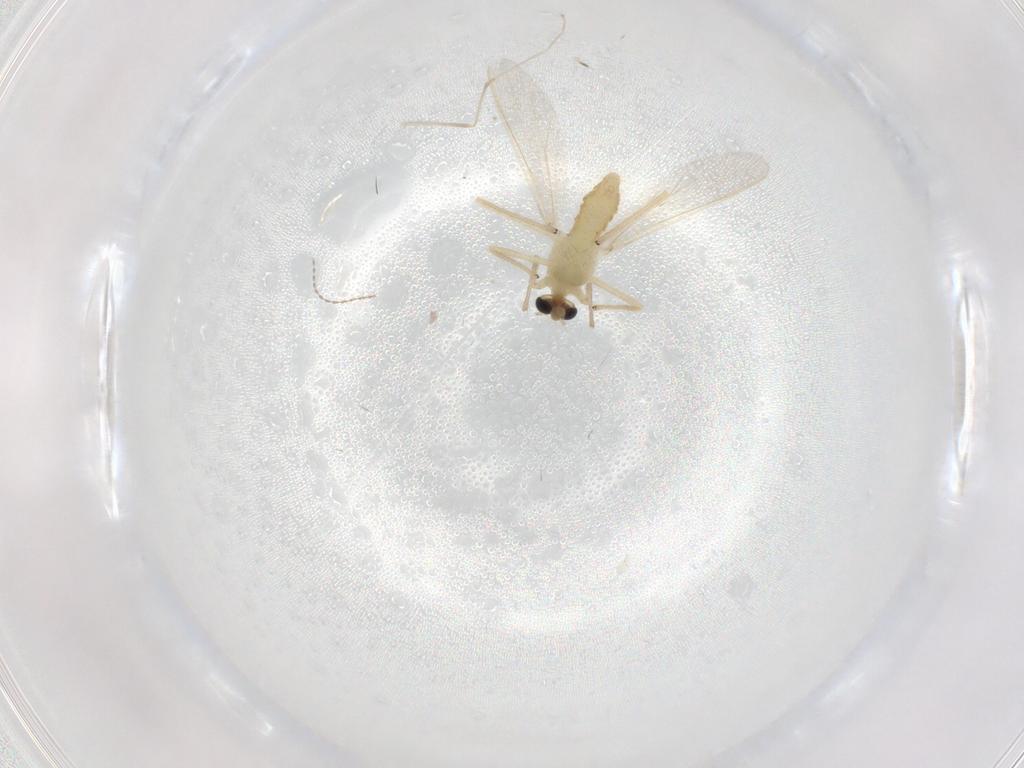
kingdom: Animalia
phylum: Arthropoda
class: Insecta
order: Diptera
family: Chironomidae
